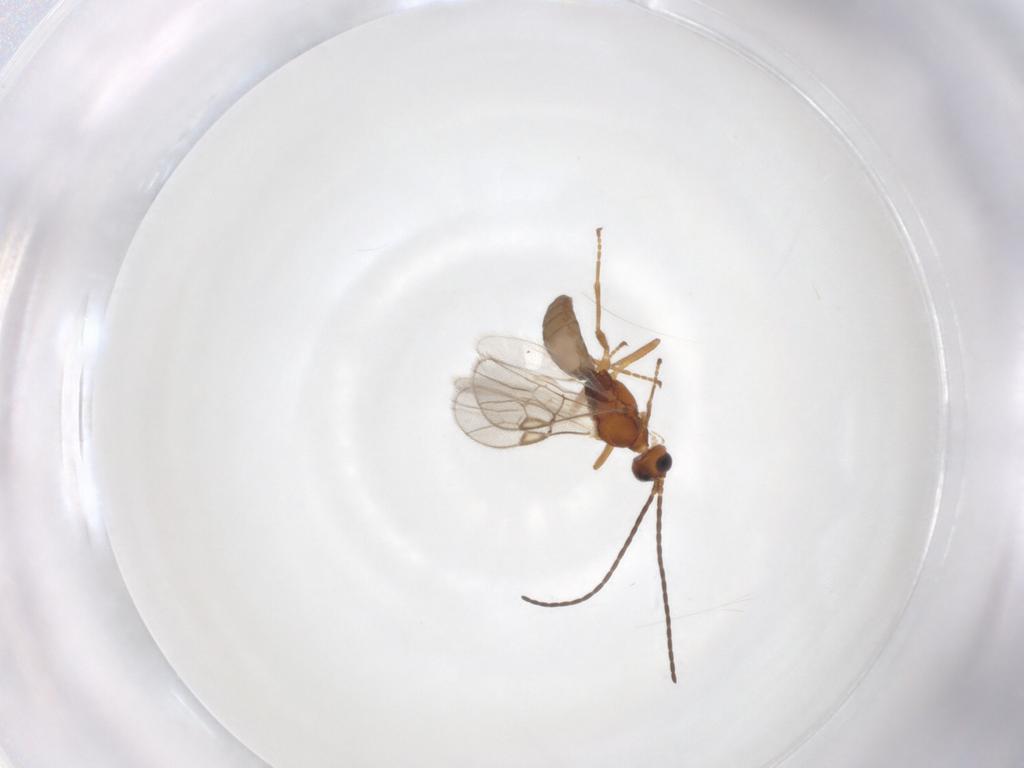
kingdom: Animalia
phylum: Arthropoda
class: Insecta
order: Hymenoptera
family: Braconidae
